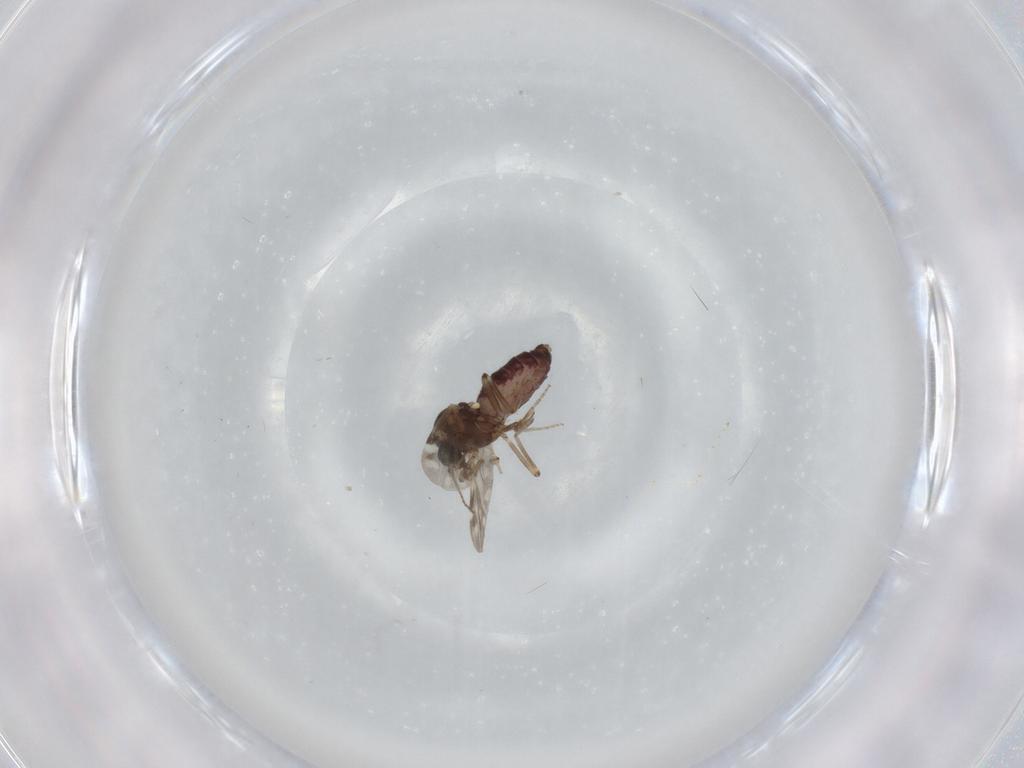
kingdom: Animalia
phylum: Arthropoda
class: Insecta
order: Diptera
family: Ceratopogonidae
